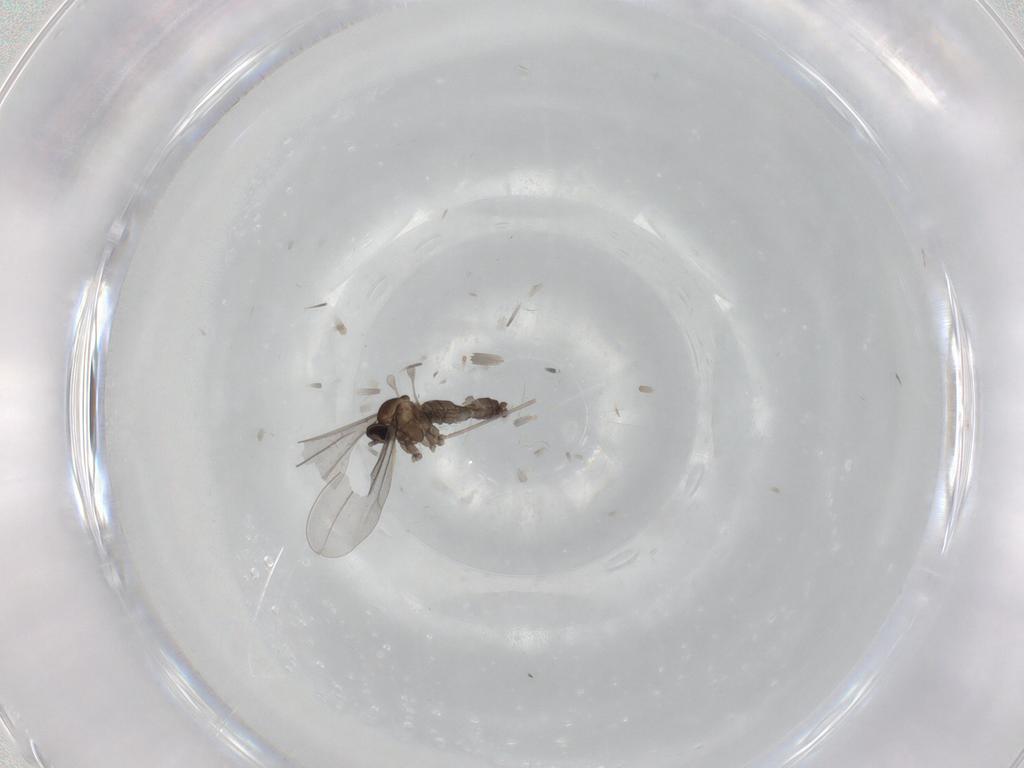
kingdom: Animalia
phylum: Arthropoda
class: Insecta
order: Diptera
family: Cecidomyiidae
